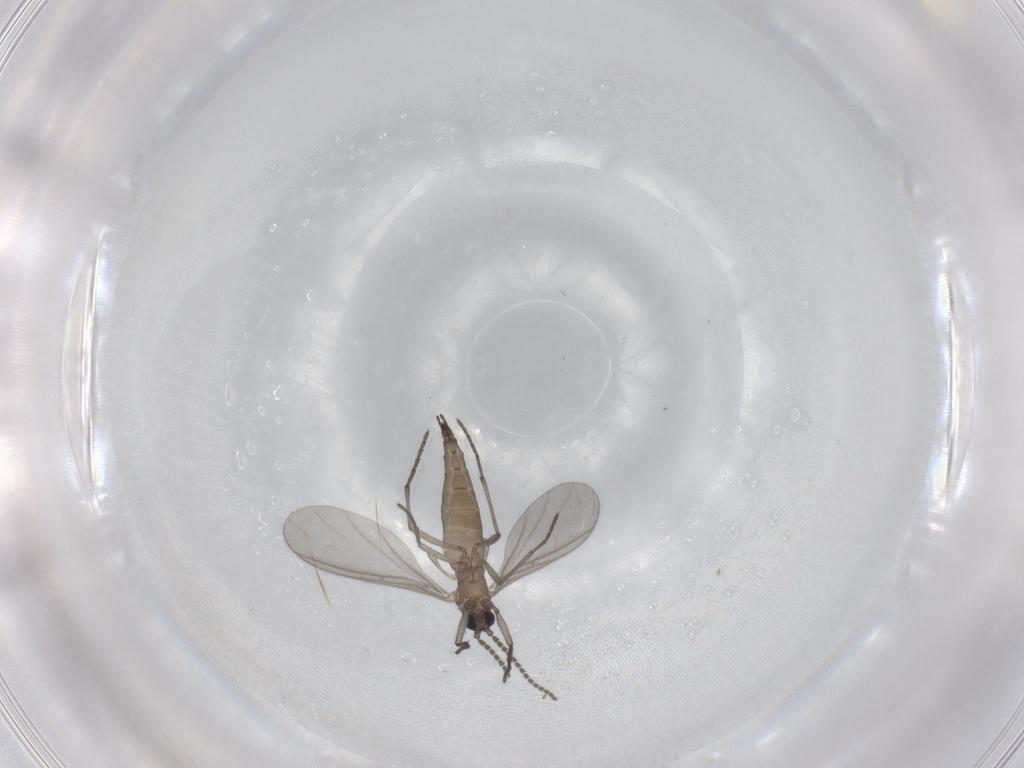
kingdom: Animalia
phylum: Arthropoda
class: Insecta
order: Diptera
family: Sciaridae
